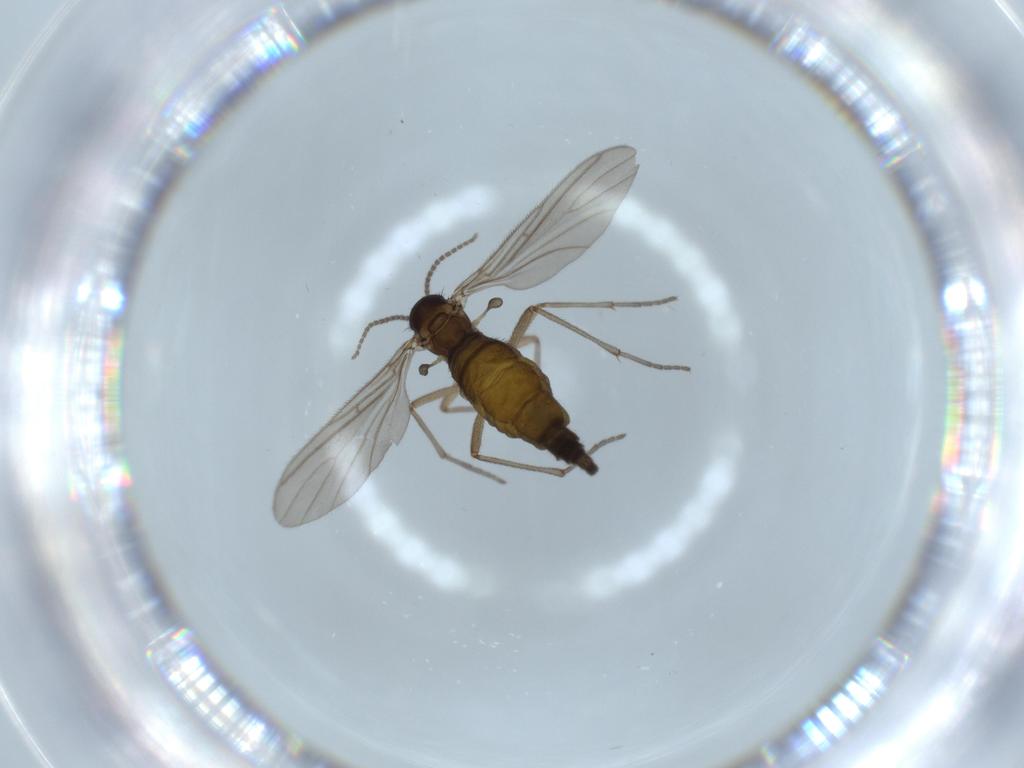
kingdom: Animalia
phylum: Arthropoda
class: Insecta
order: Diptera
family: Sciaridae
